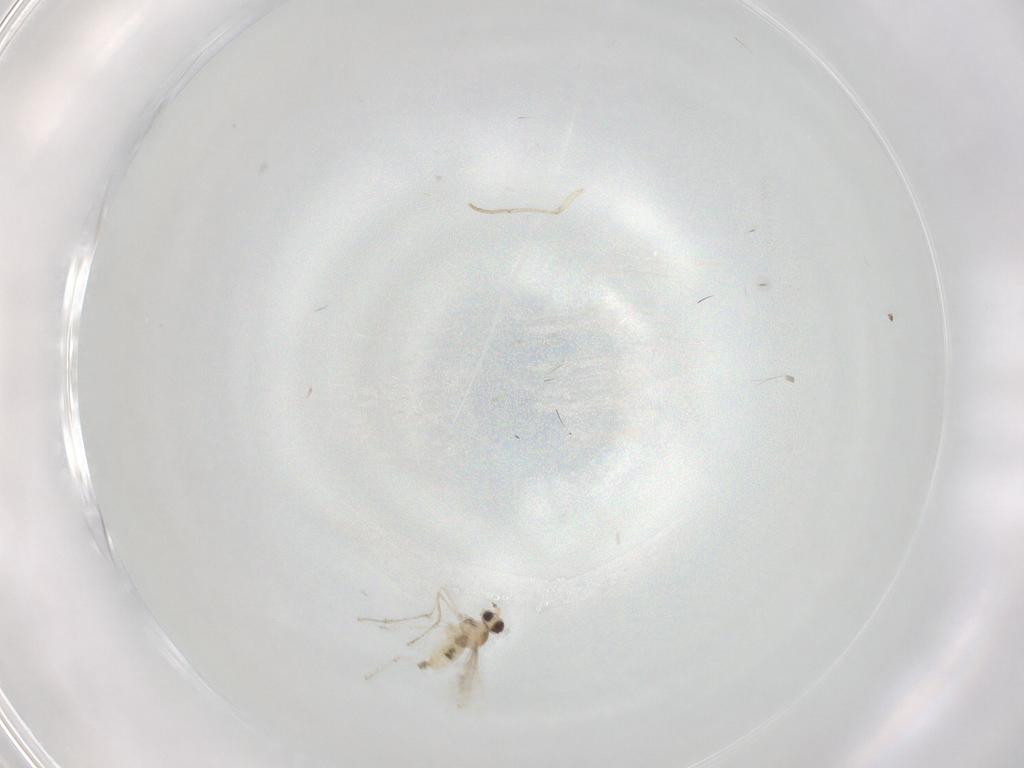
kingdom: Animalia
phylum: Arthropoda
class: Insecta
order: Diptera
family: Cecidomyiidae
